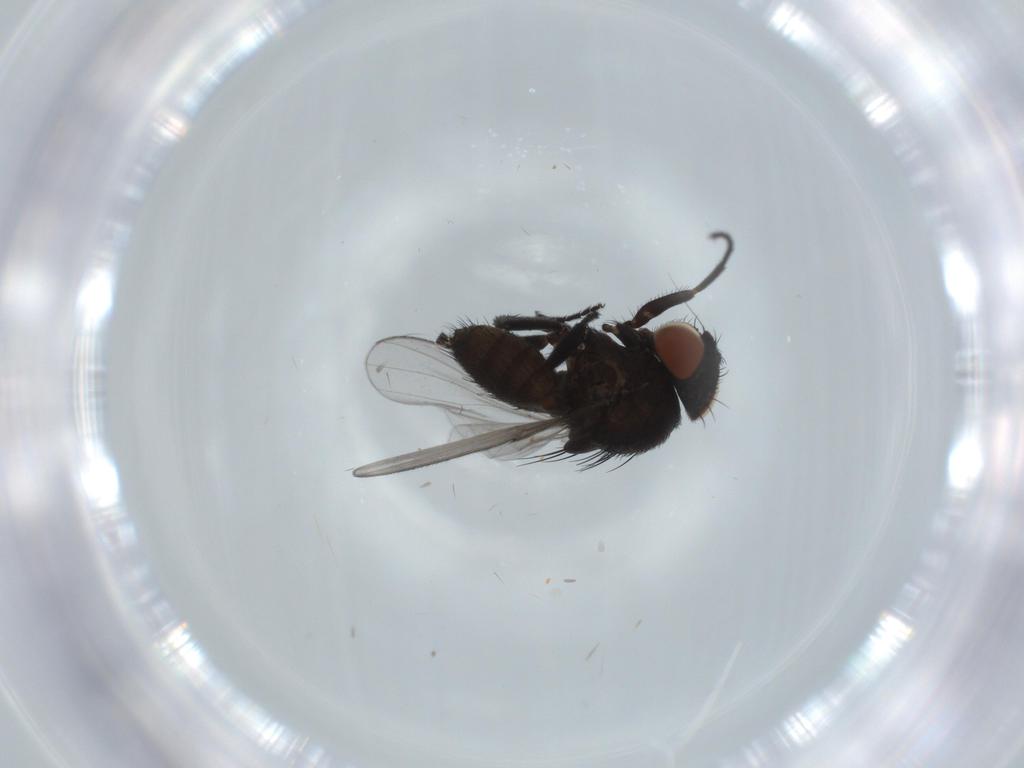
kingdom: Animalia
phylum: Arthropoda
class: Insecta
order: Diptera
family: Milichiidae
